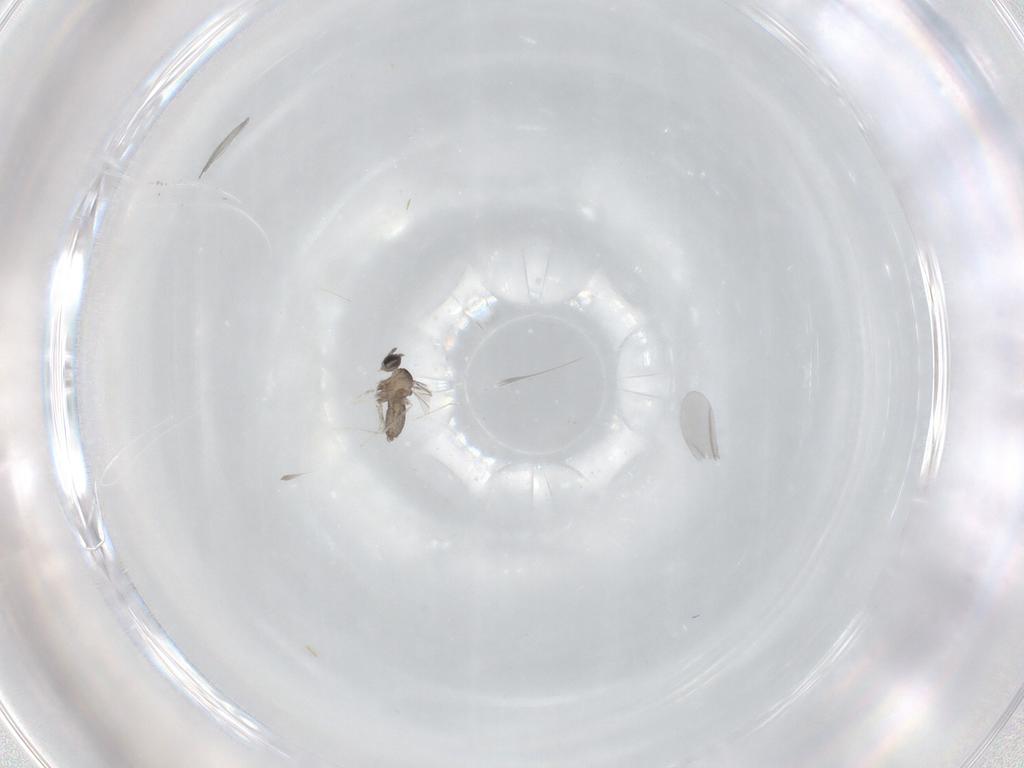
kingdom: Animalia
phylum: Arthropoda
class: Insecta
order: Diptera
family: Cecidomyiidae
